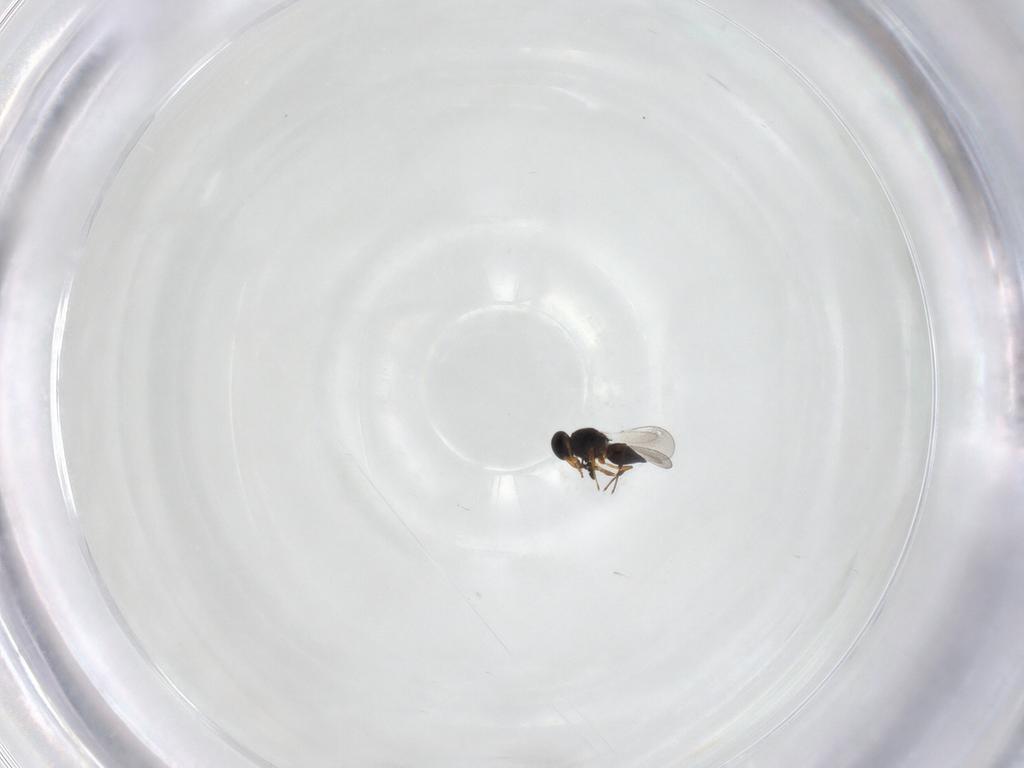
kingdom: Animalia
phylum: Arthropoda
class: Insecta
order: Hymenoptera
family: Platygastridae
